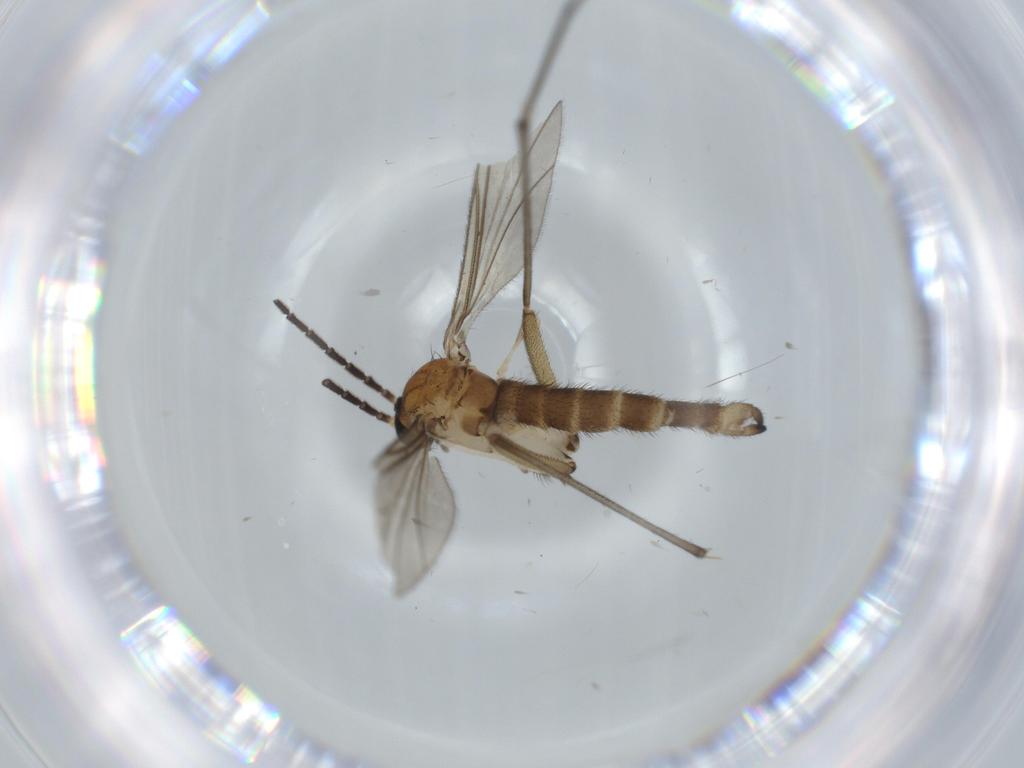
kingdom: Animalia
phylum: Arthropoda
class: Insecta
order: Diptera
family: Sciaridae
